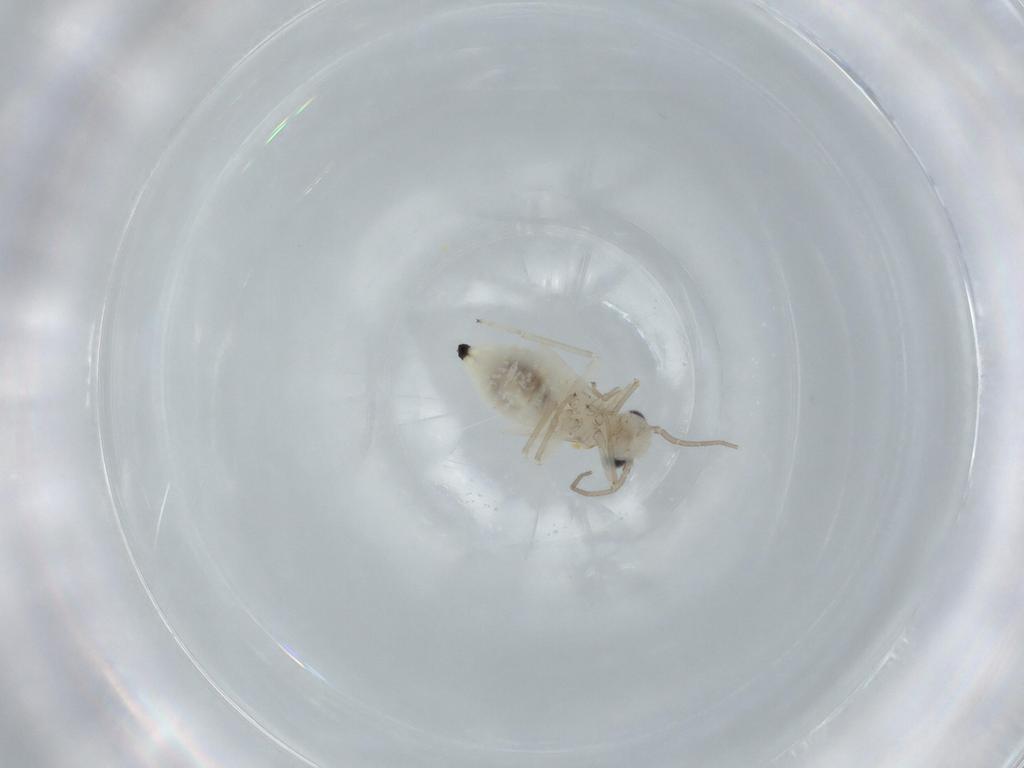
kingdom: Animalia
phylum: Arthropoda
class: Insecta
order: Psocodea
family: Caeciliusidae
